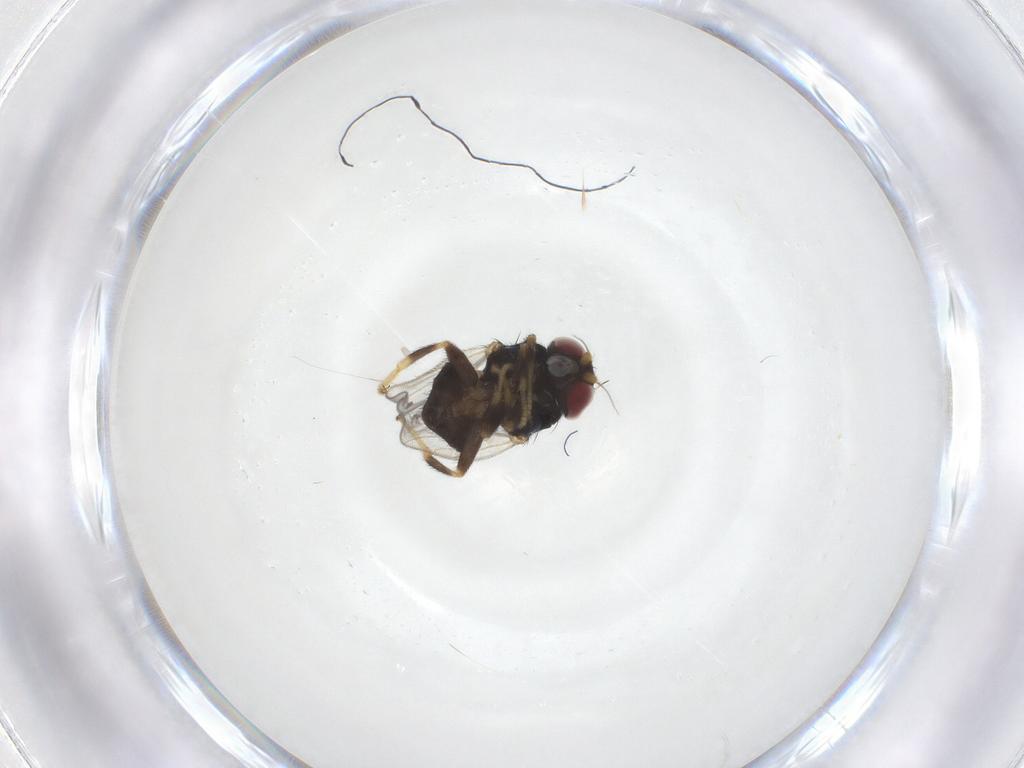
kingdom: Animalia
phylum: Arthropoda
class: Insecta
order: Diptera
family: Chloropidae
